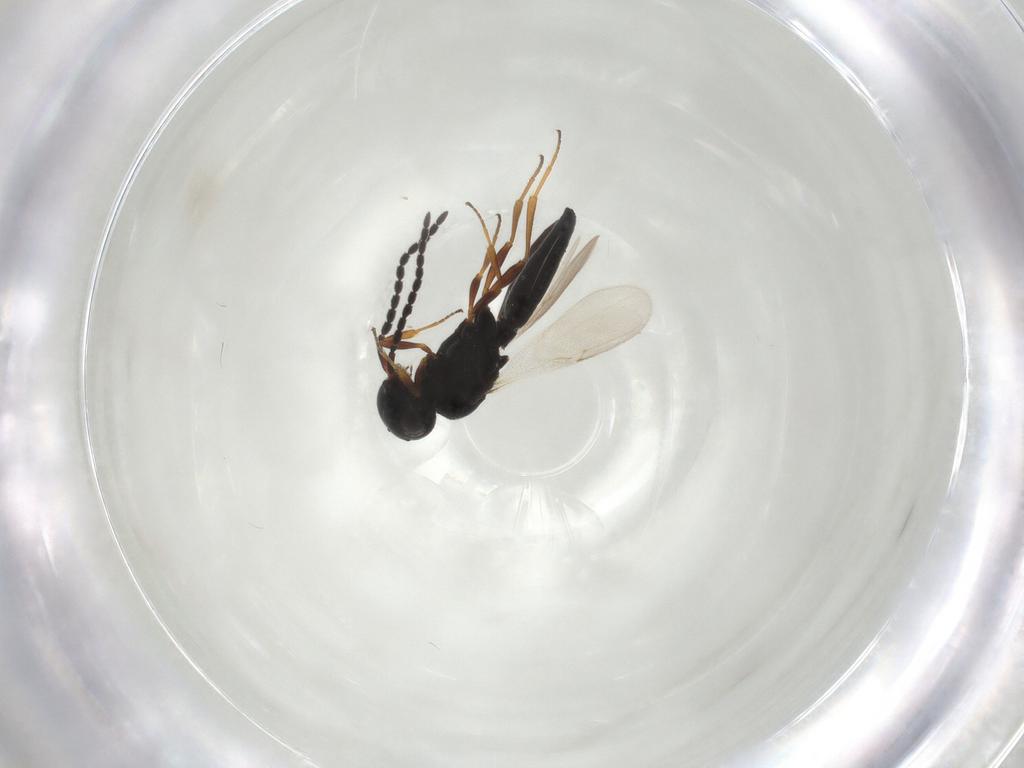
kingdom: Animalia
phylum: Arthropoda
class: Insecta
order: Hymenoptera
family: Scelionidae
